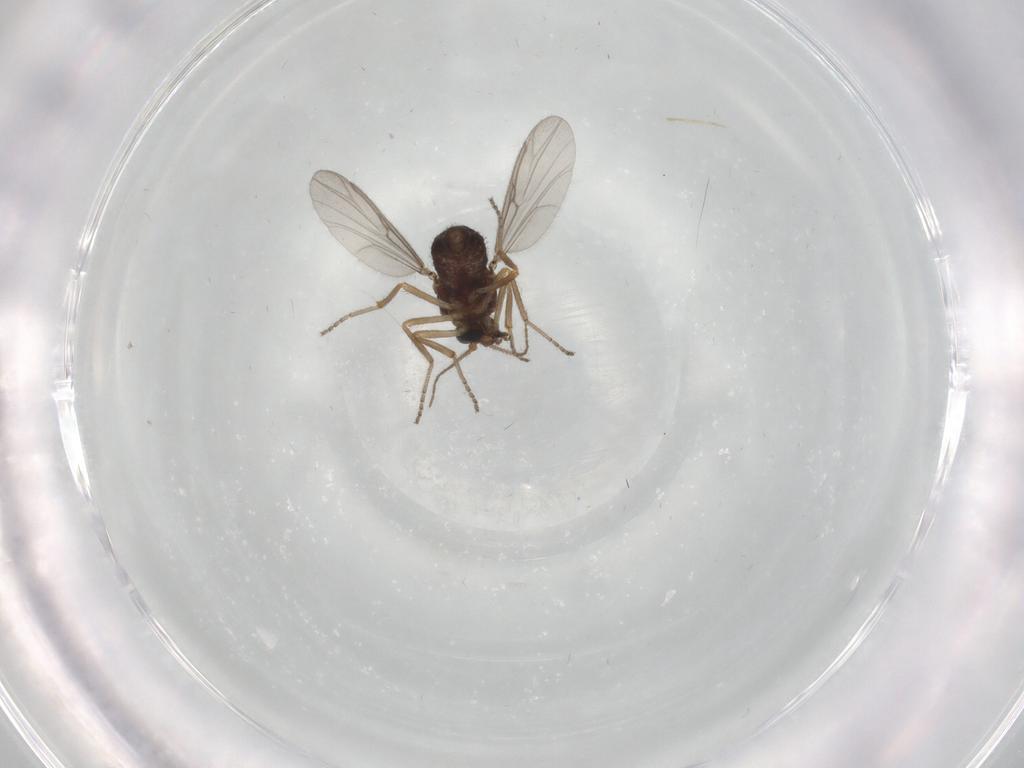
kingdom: Animalia
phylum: Arthropoda
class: Insecta
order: Diptera
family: Ceratopogonidae
